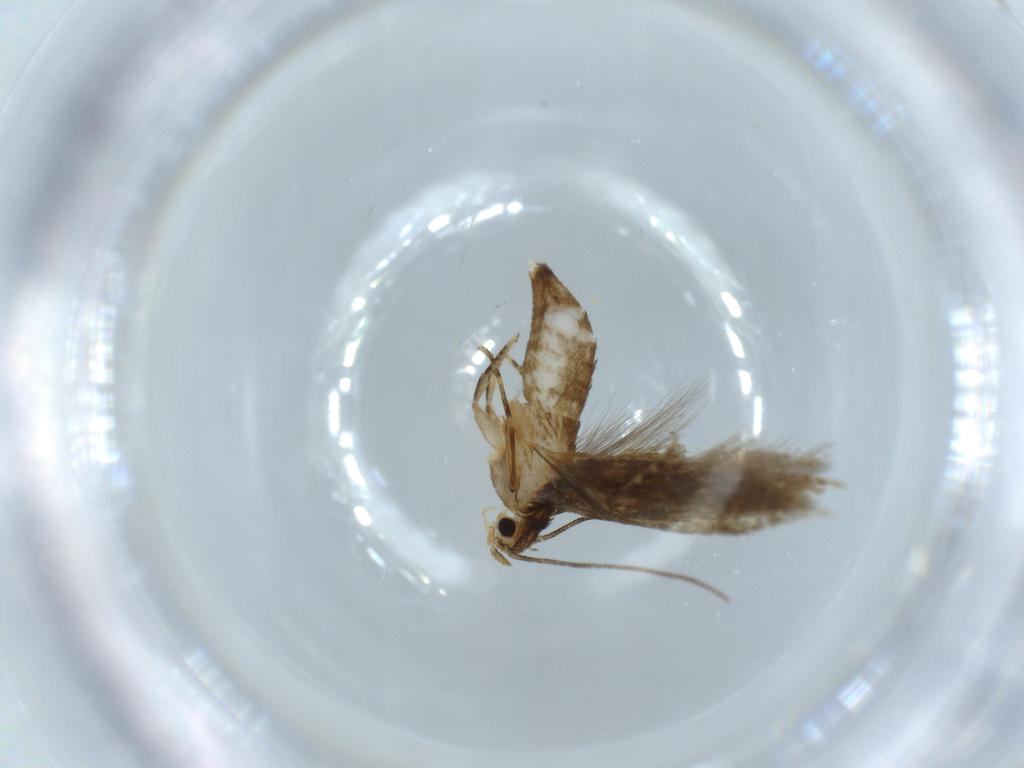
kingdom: Animalia
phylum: Arthropoda
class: Insecta
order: Lepidoptera
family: Tineidae
